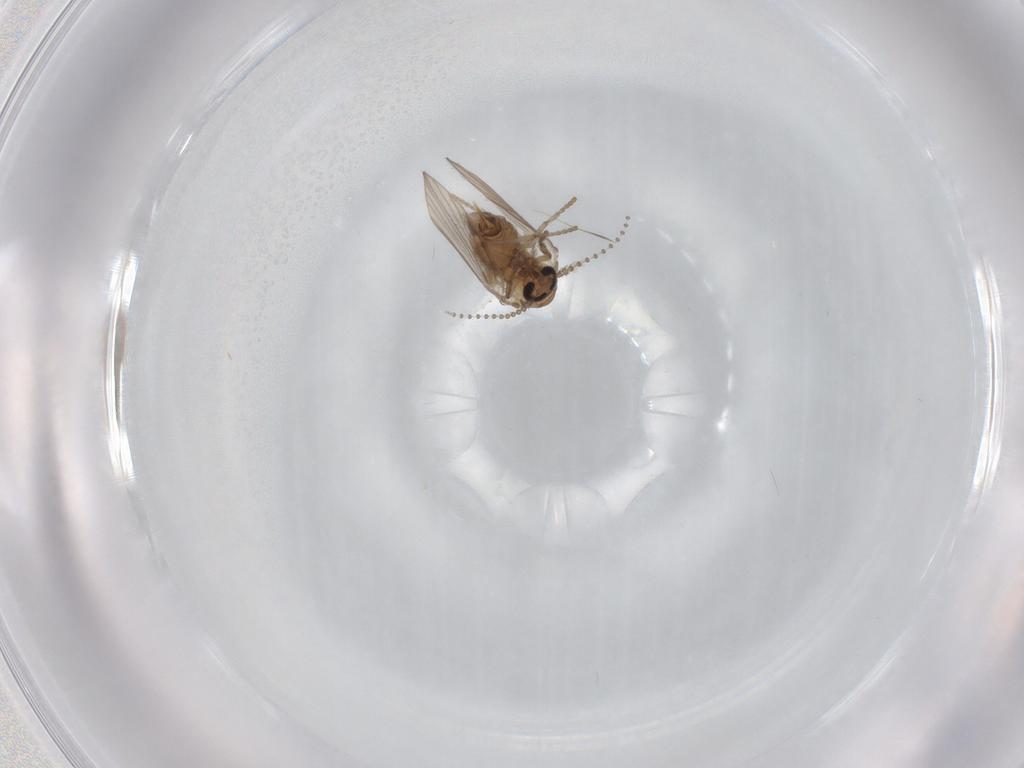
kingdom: Animalia
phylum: Arthropoda
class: Insecta
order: Diptera
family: Psychodidae
